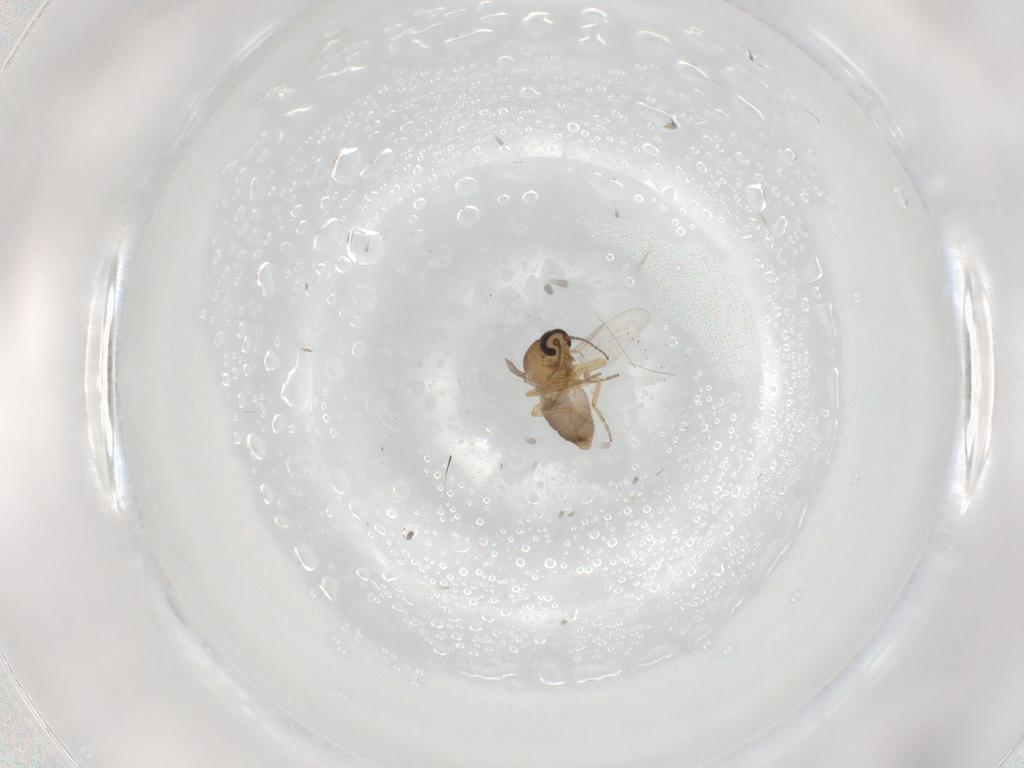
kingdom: Animalia
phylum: Arthropoda
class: Insecta
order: Diptera
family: Ceratopogonidae
